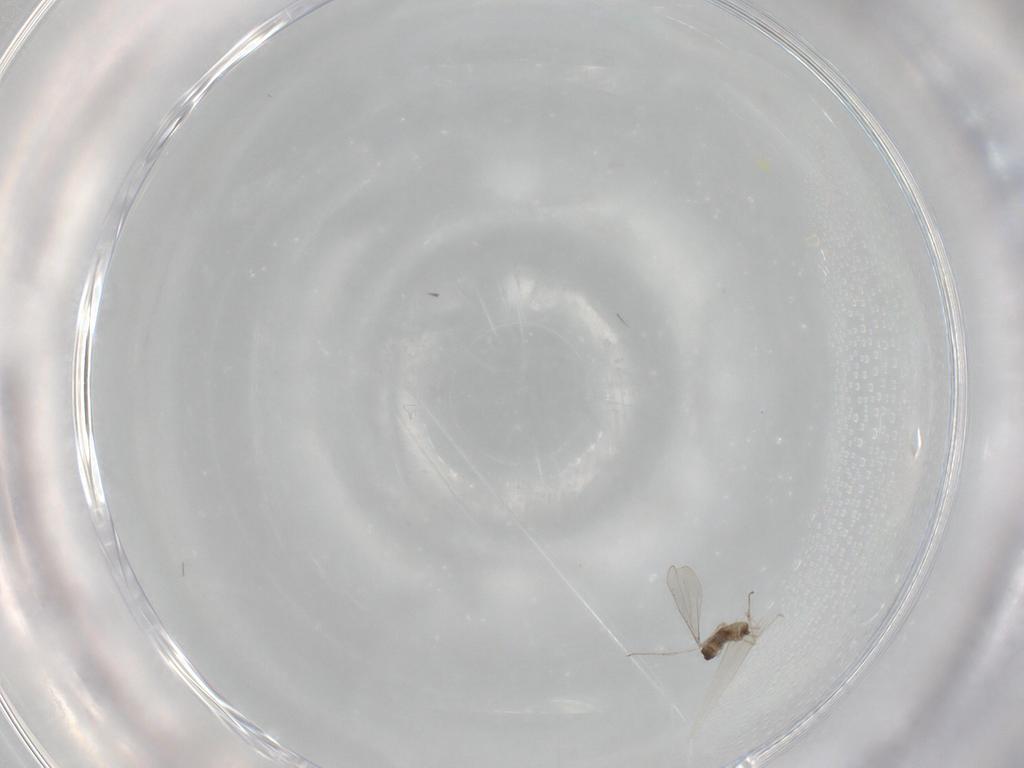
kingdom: Animalia
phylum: Arthropoda
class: Insecta
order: Diptera
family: Cecidomyiidae
